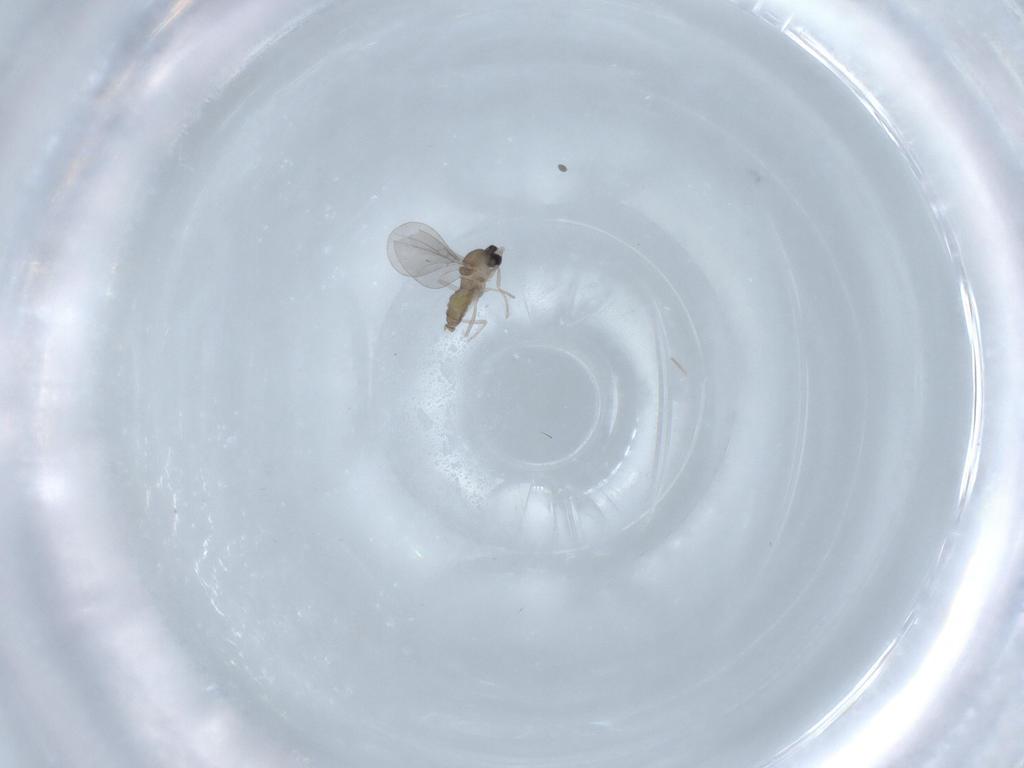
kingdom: Animalia
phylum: Arthropoda
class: Insecta
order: Diptera
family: Cecidomyiidae
